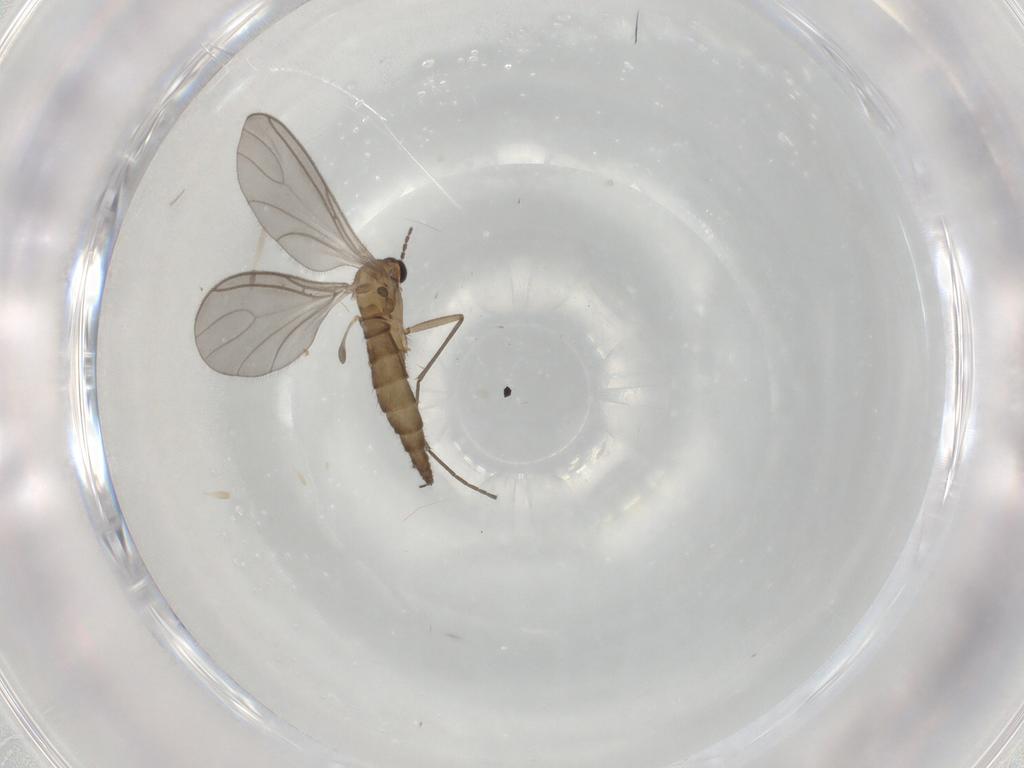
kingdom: Animalia
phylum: Arthropoda
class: Insecta
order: Diptera
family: Sciaridae
